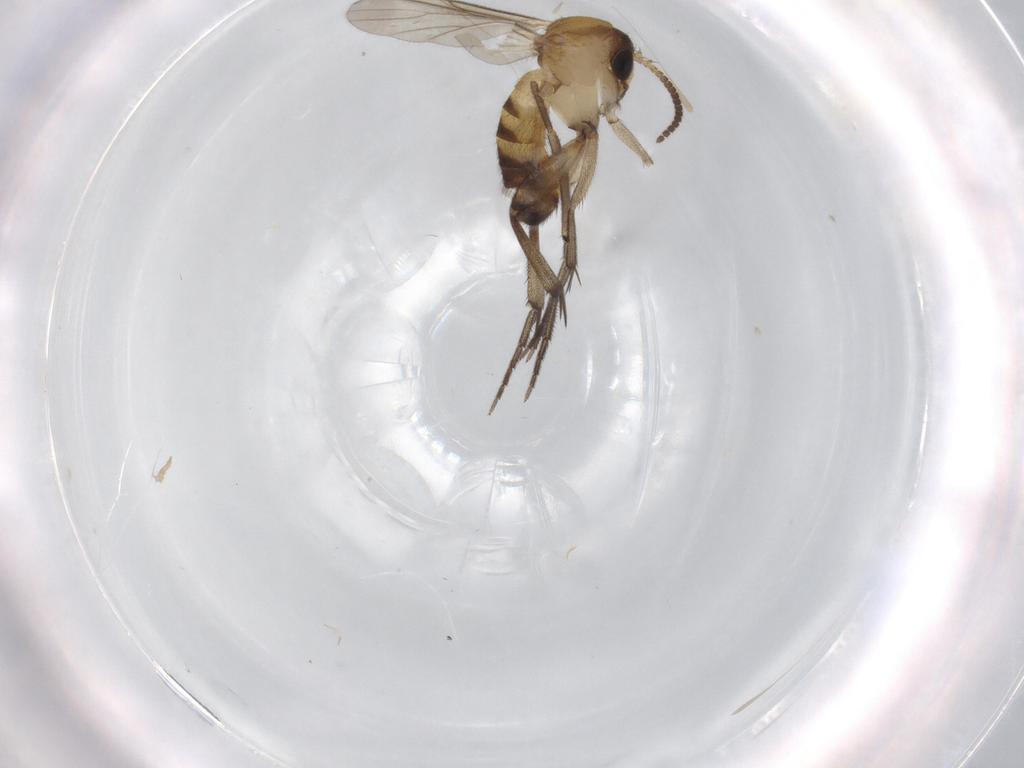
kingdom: Animalia
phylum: Arthropoda
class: Insecta
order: Diptera
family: Mycetophilidae
